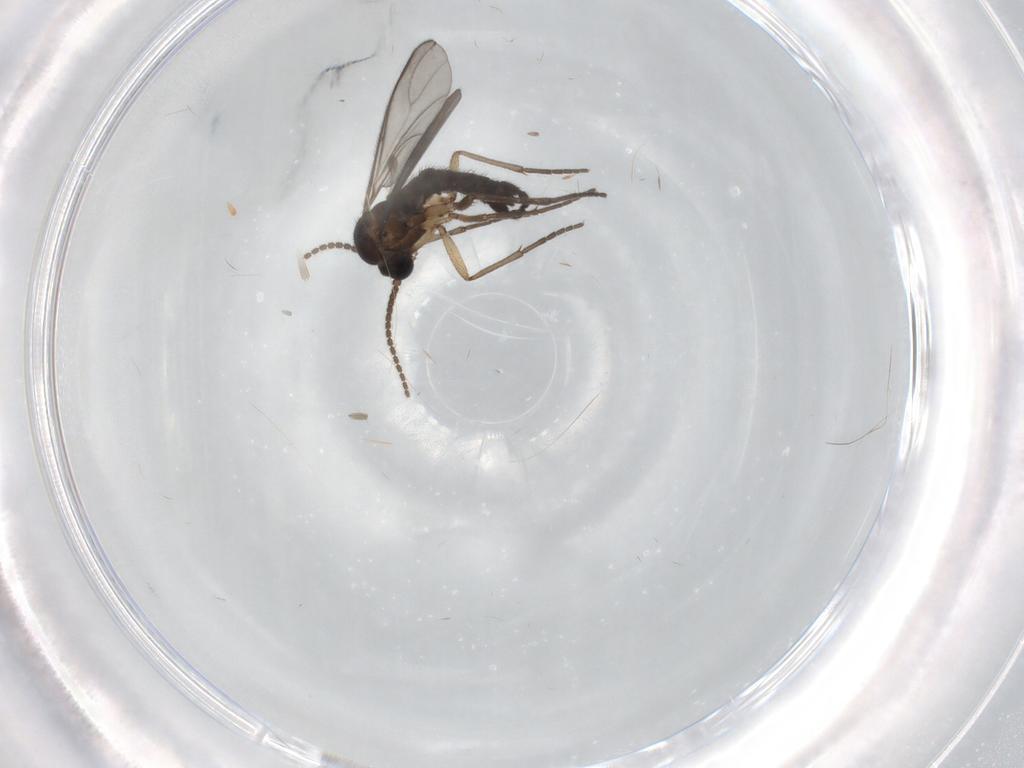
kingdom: Animalia
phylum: Arthropoda
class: Insecta
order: Diptera
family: Sciaridae
